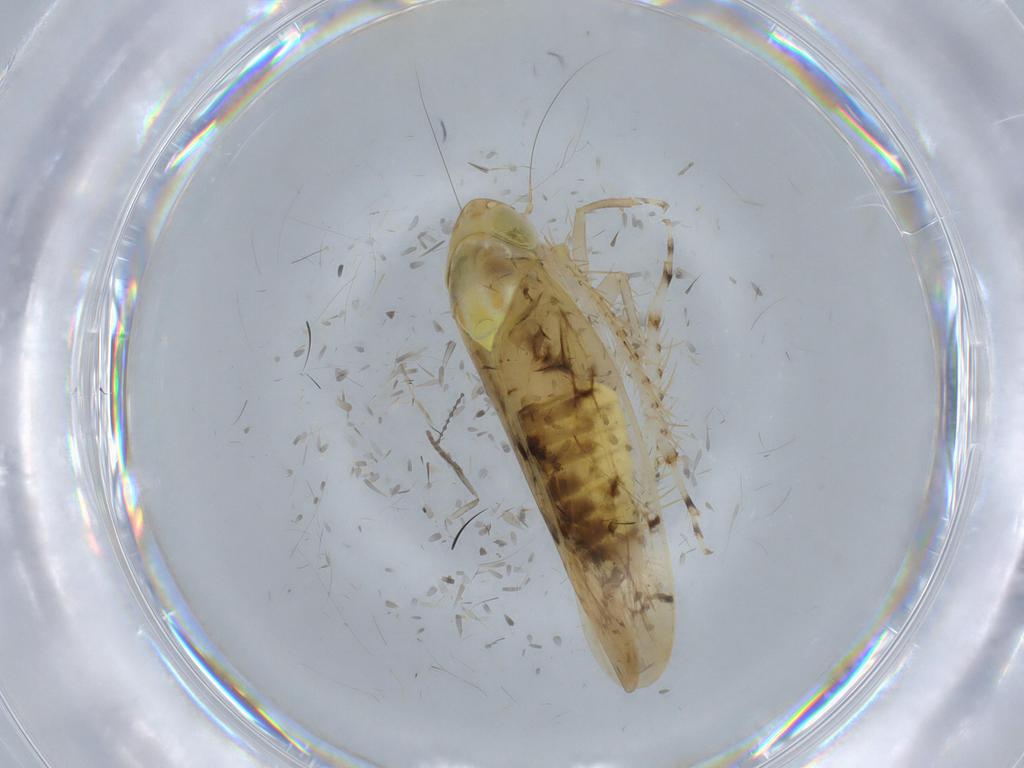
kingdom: Animalia
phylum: Arthropoda
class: Insecta
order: Hemiptera
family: Cicadellidae
